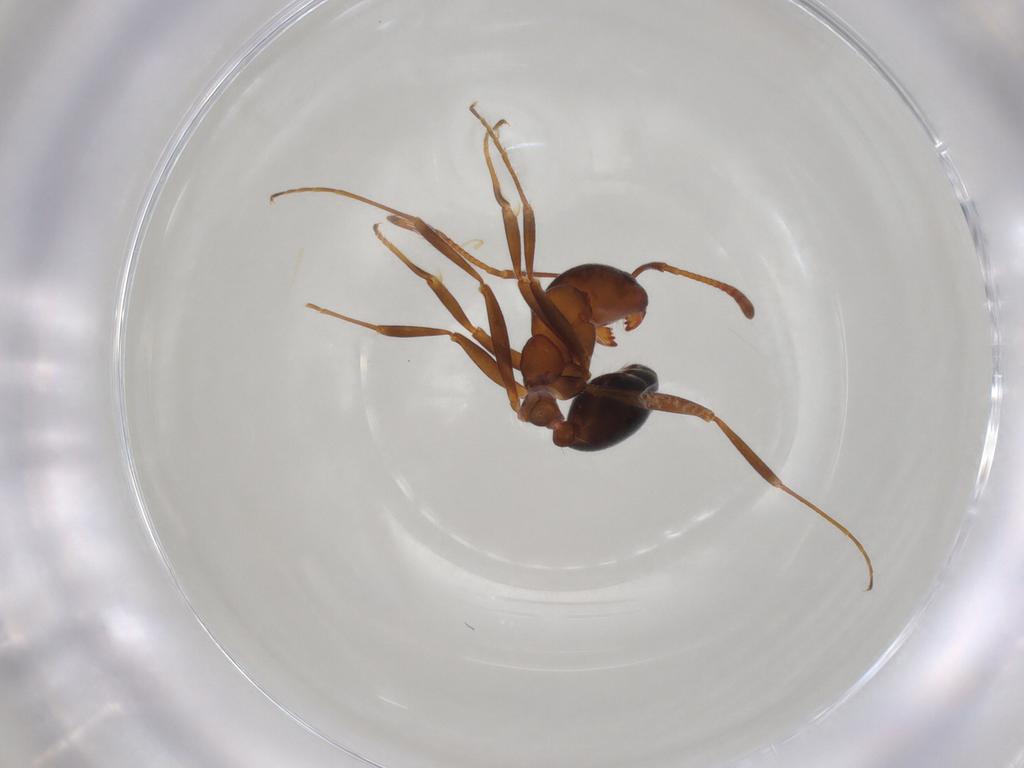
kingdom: Animalia
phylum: Arthropoda
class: Insecta
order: Hymenoptera
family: Formicidae
